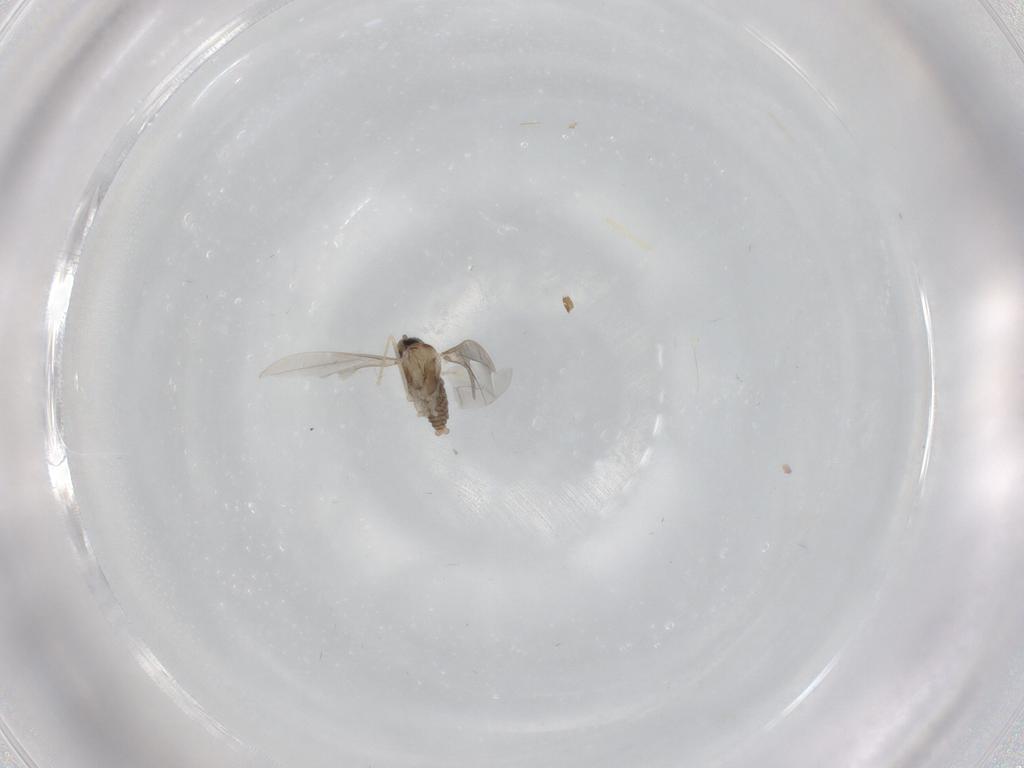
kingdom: Animalia
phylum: Arthropoda
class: Insecta
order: Diptera
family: Cecidomyiidae
